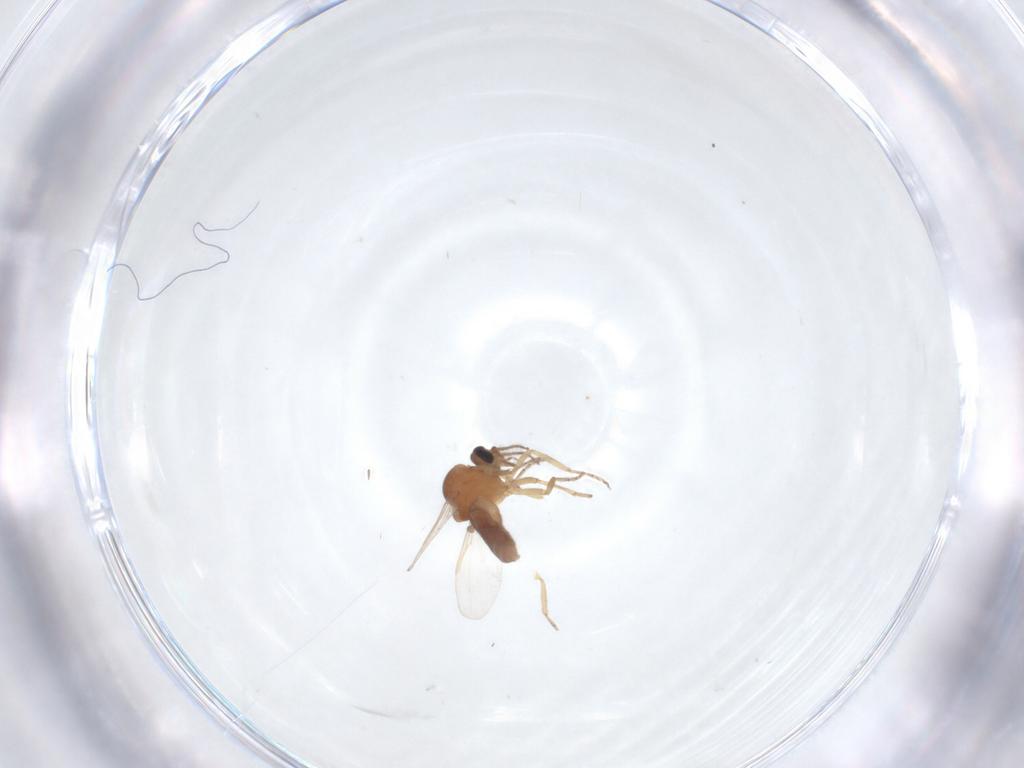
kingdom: Animalia
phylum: Arthropoda
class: Insecta
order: Diptera
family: Ceratopogonidae
